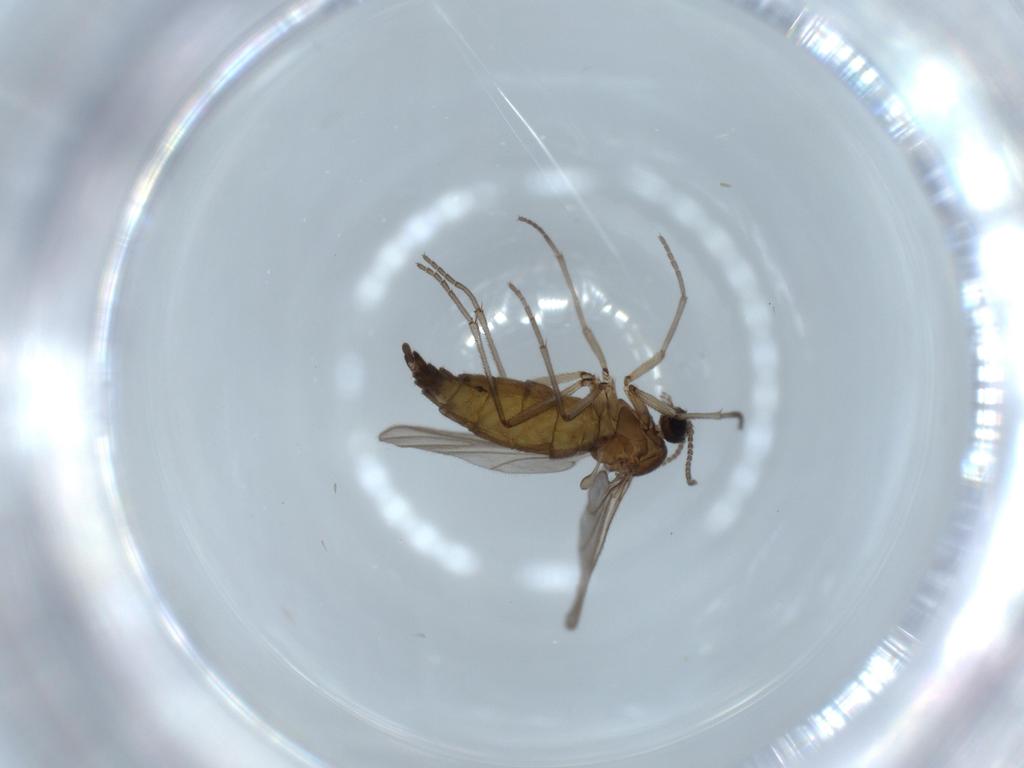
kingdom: Animalia
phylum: Arthropoda
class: Insecta
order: Diptera
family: Sciaridae
